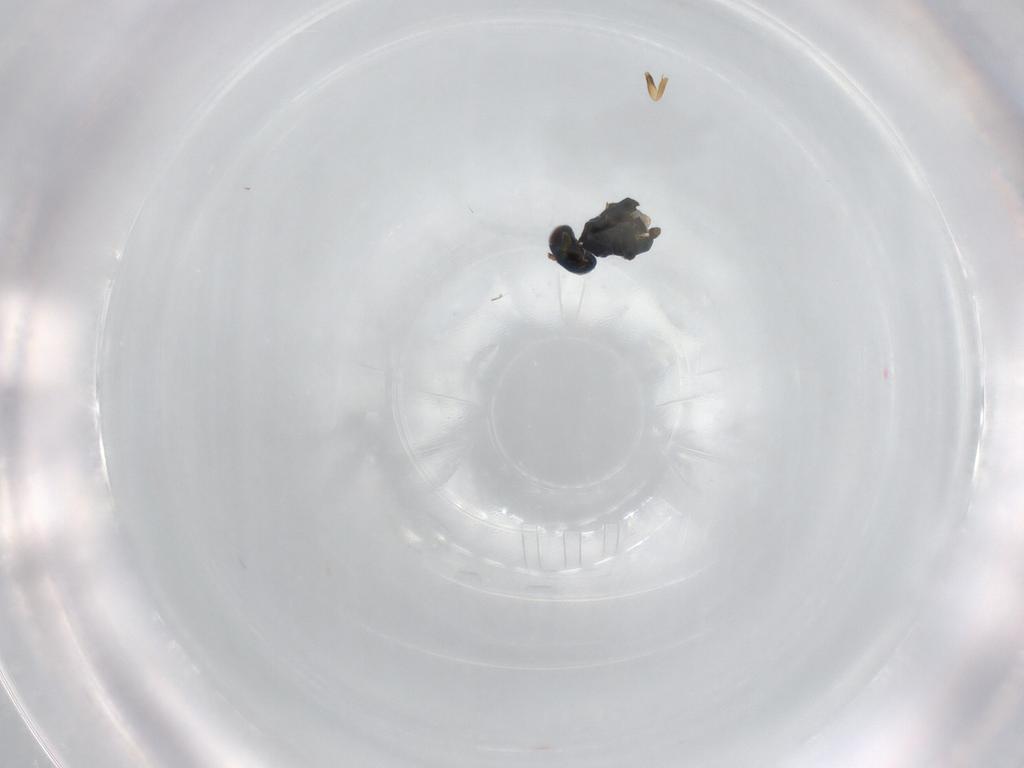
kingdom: Animalia
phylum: Arthropoda
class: Insecta
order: Hymenoptera
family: Pteromalidae
